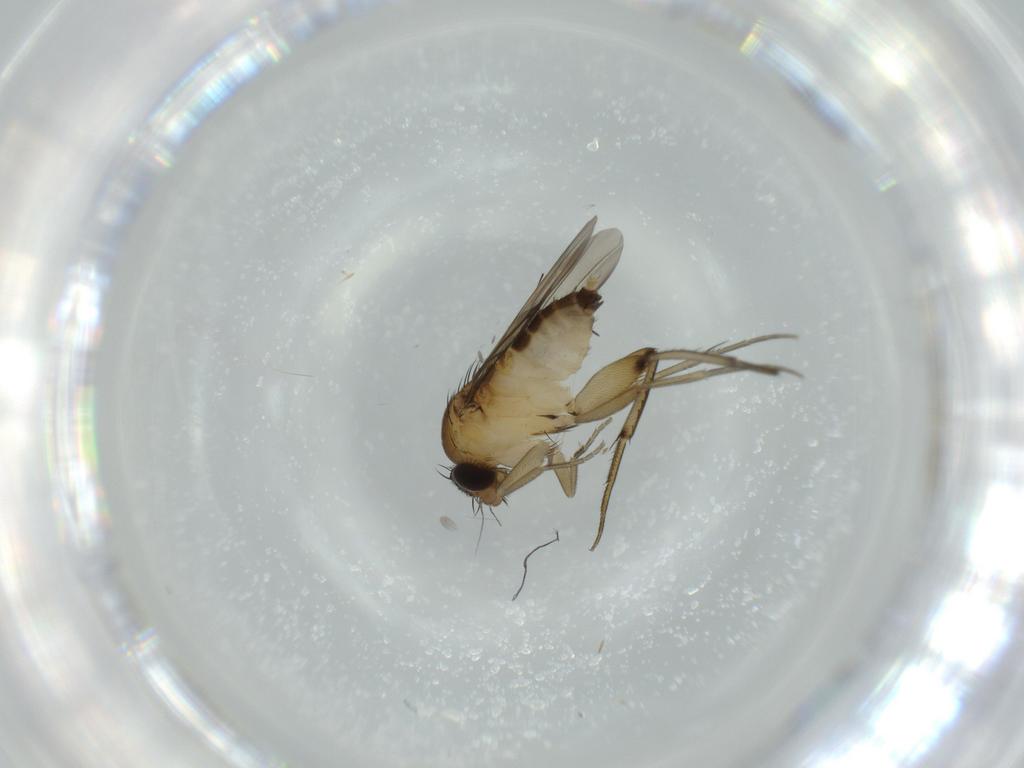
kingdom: Animalia
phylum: Arthropoda
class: Insecta
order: Diptera
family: Phoridae
